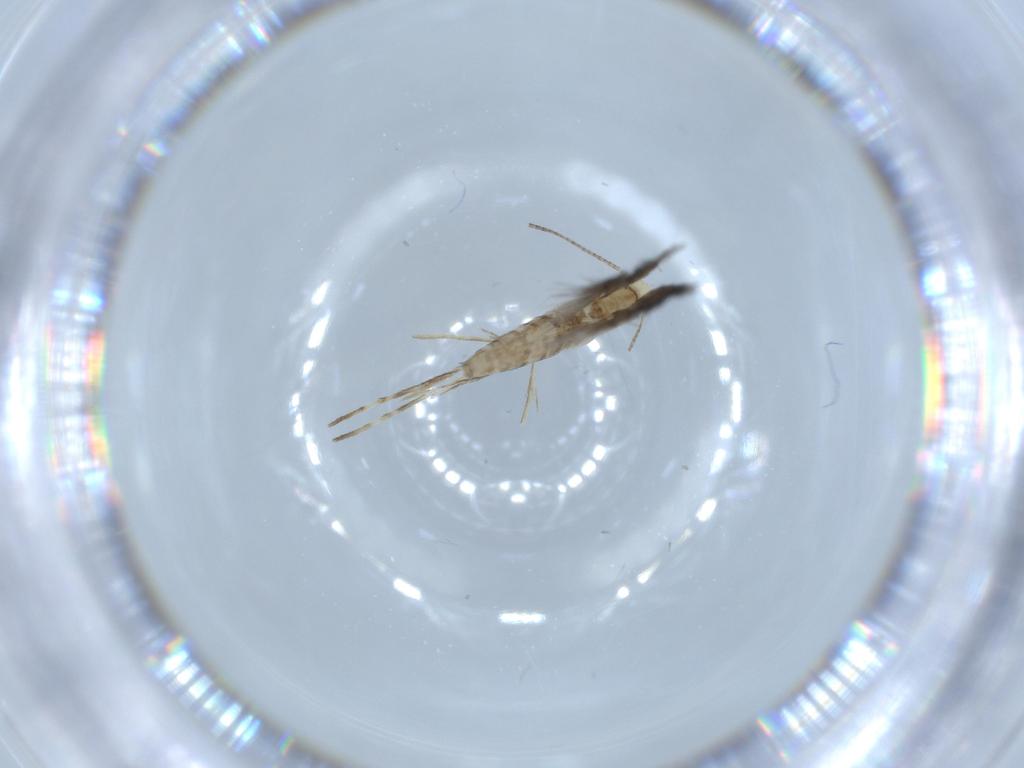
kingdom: Animalia
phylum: Arthropoda
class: Insecta
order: Lepidoptera
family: Gracillariidae
